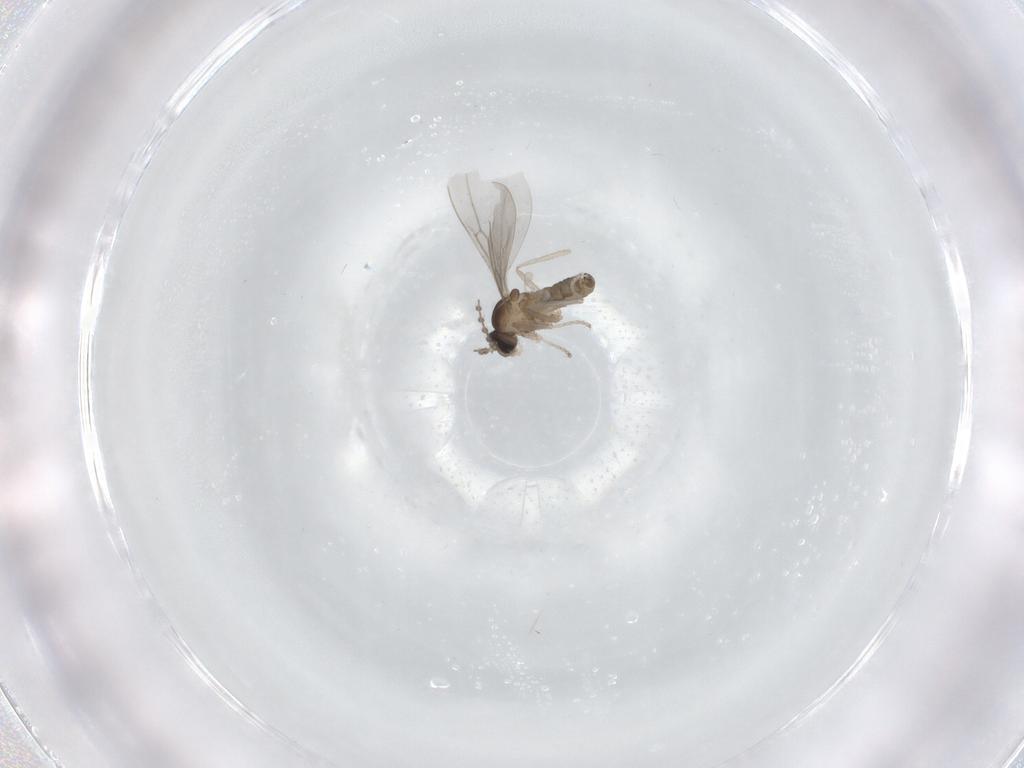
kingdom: Animalia
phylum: Arthropoda
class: Insecta
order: Diptera
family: Cecidomyiidae
